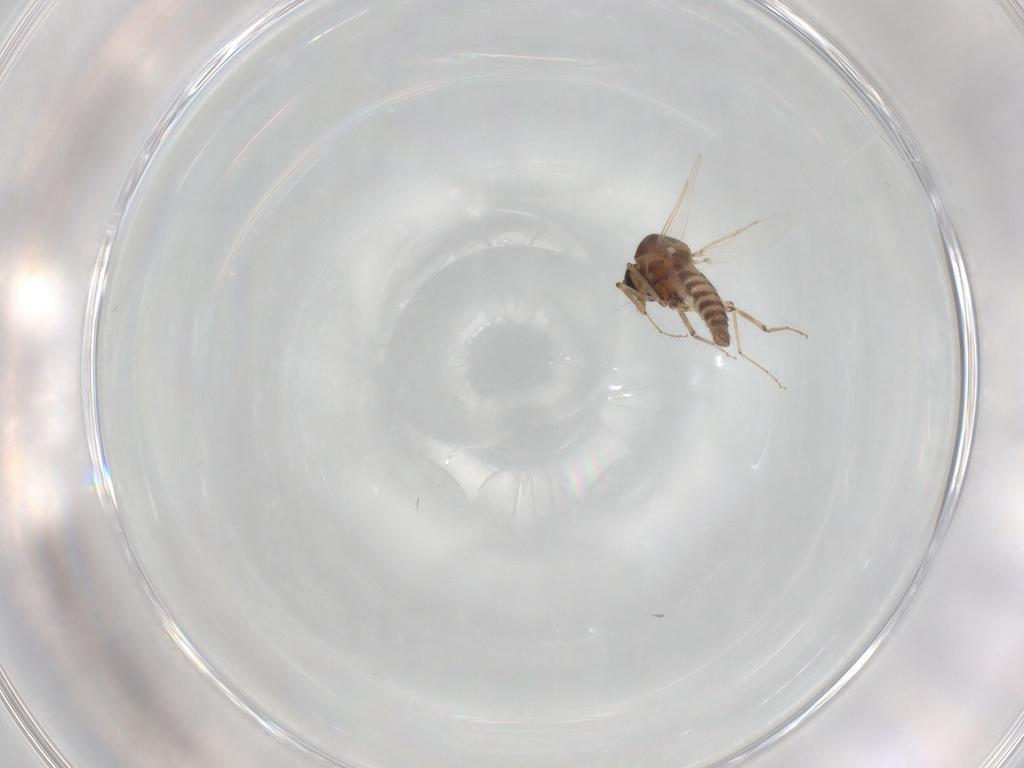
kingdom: Animalia
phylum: Arthropoda
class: Insecta
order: Diptera
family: Ceratopogonidae
